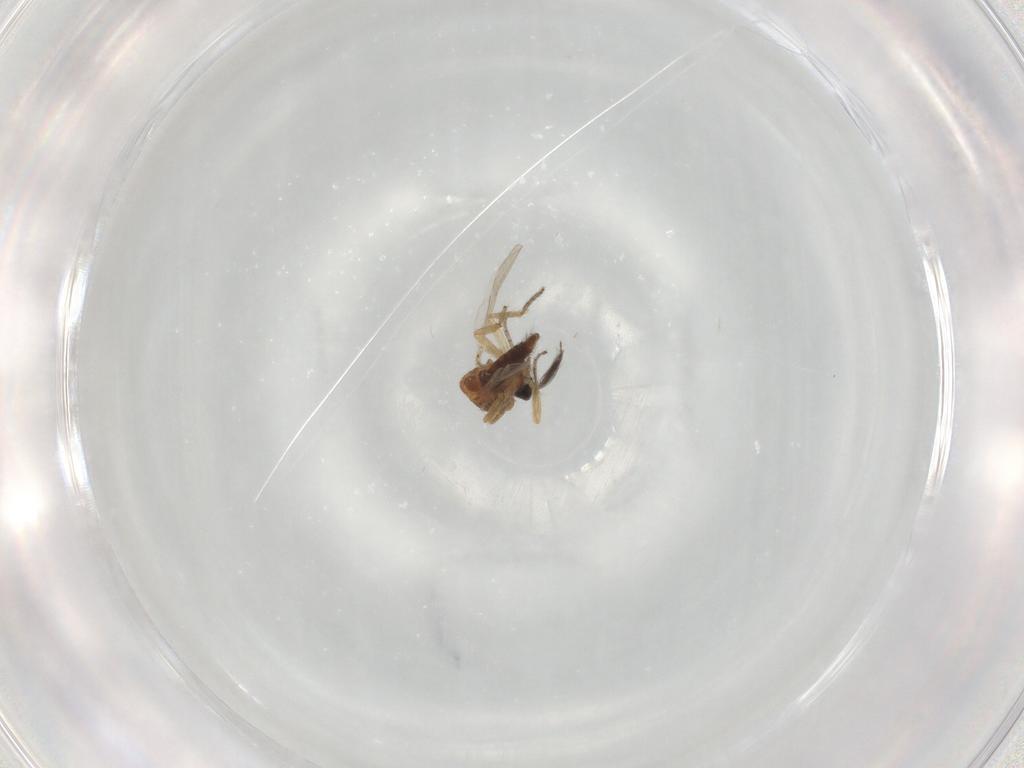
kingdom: Animalia
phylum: Arthropoda
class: Insecta
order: Diptera
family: Ceratopogonidae
